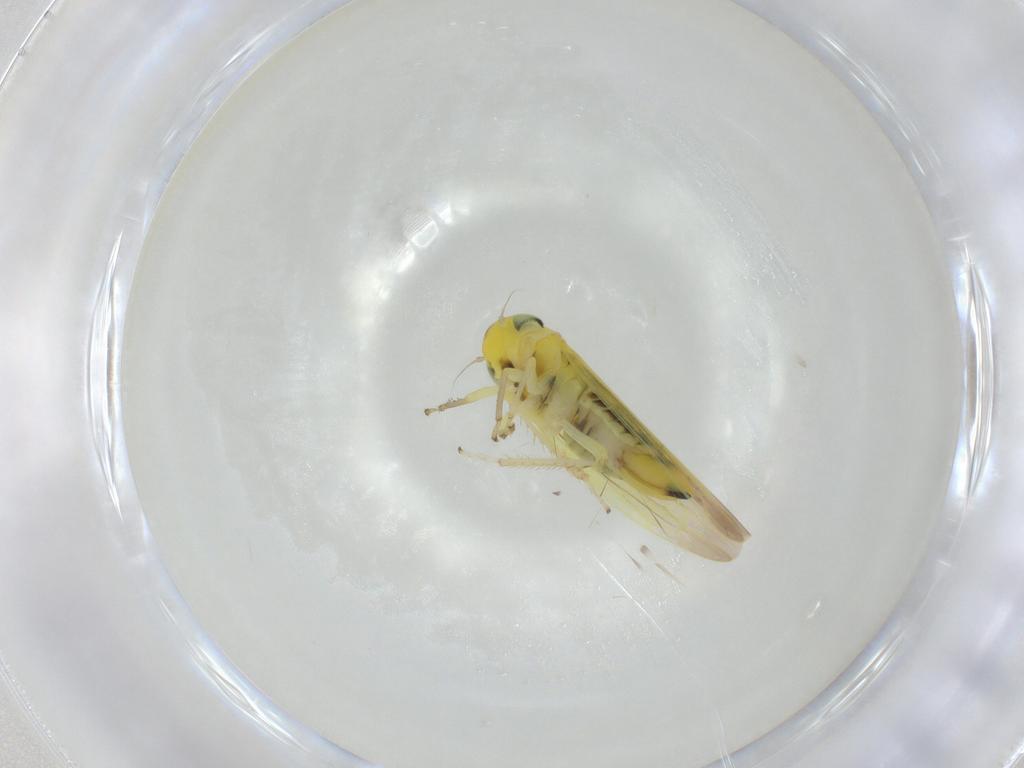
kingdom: Animalia
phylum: Arthropoda
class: Insecta
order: Hemiptera
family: Cicadellidae
